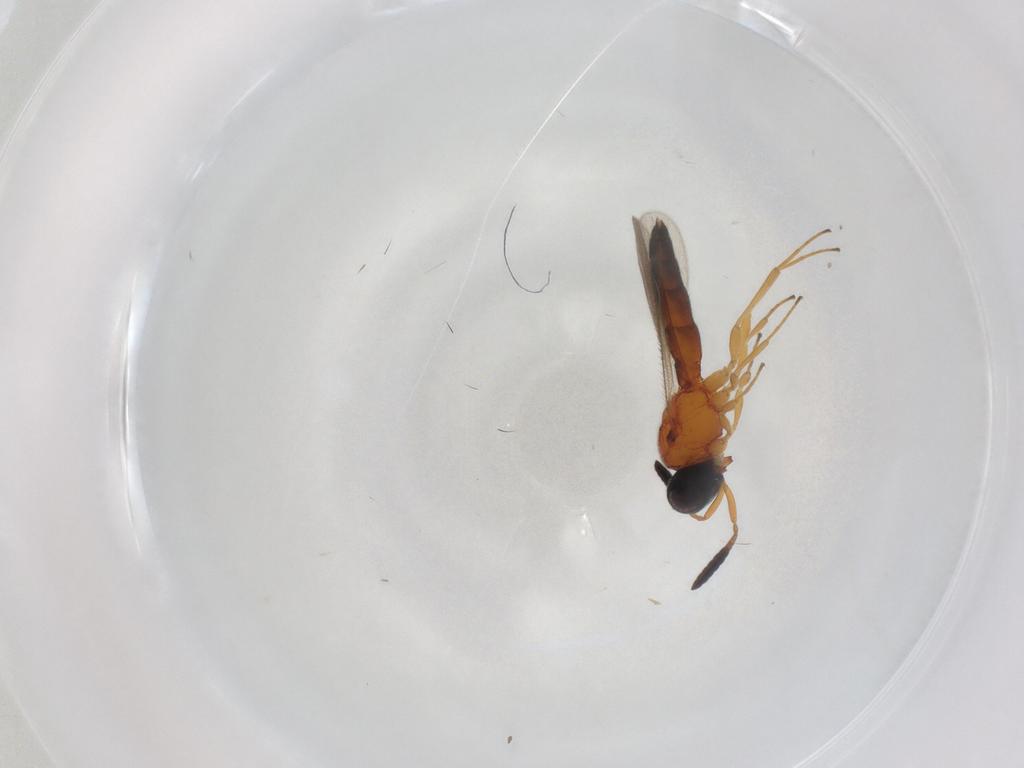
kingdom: Animalia
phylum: Arthropoda
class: Insecta
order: Hymenoptera
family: Scelionidae
